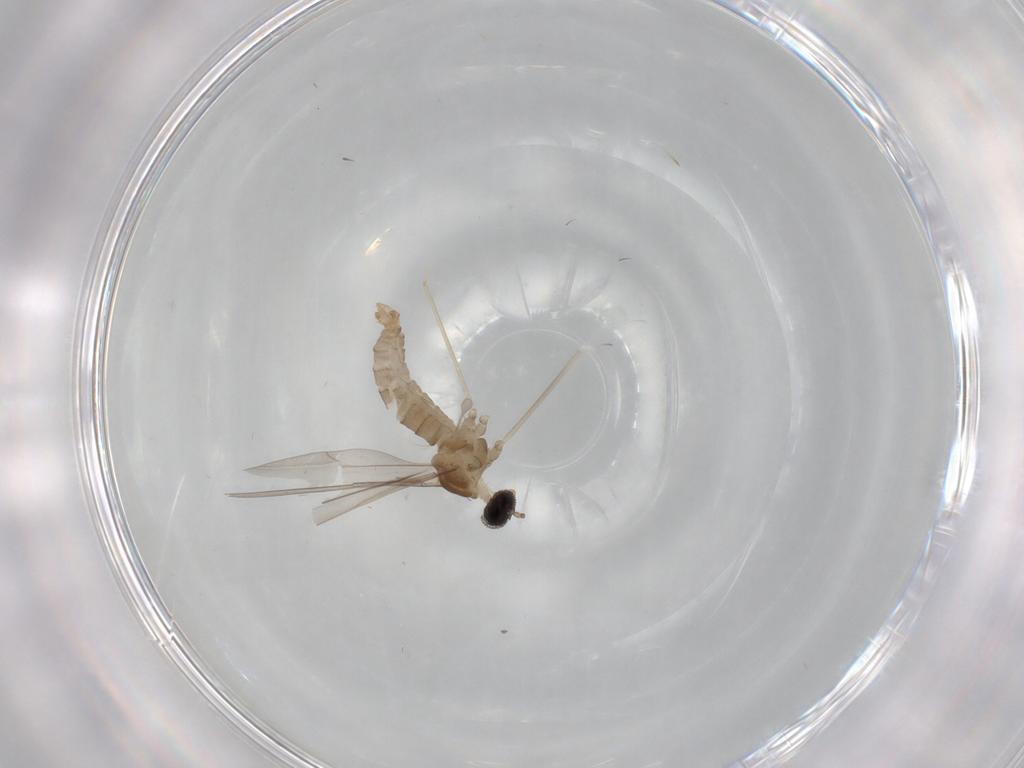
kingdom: Animalia
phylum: Arthropoda
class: Insecta
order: Diptera
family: Cecidomyiidae
